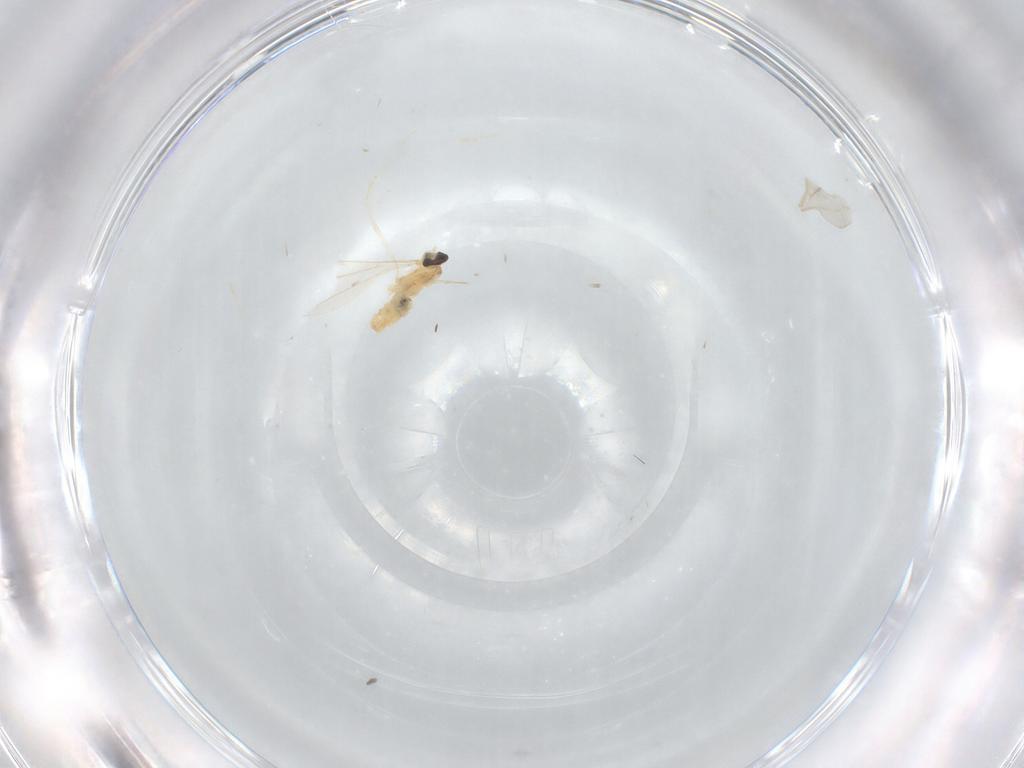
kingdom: Animalia
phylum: Arthropoda
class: Insecta
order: Diptera
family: Cecidomyiidae
